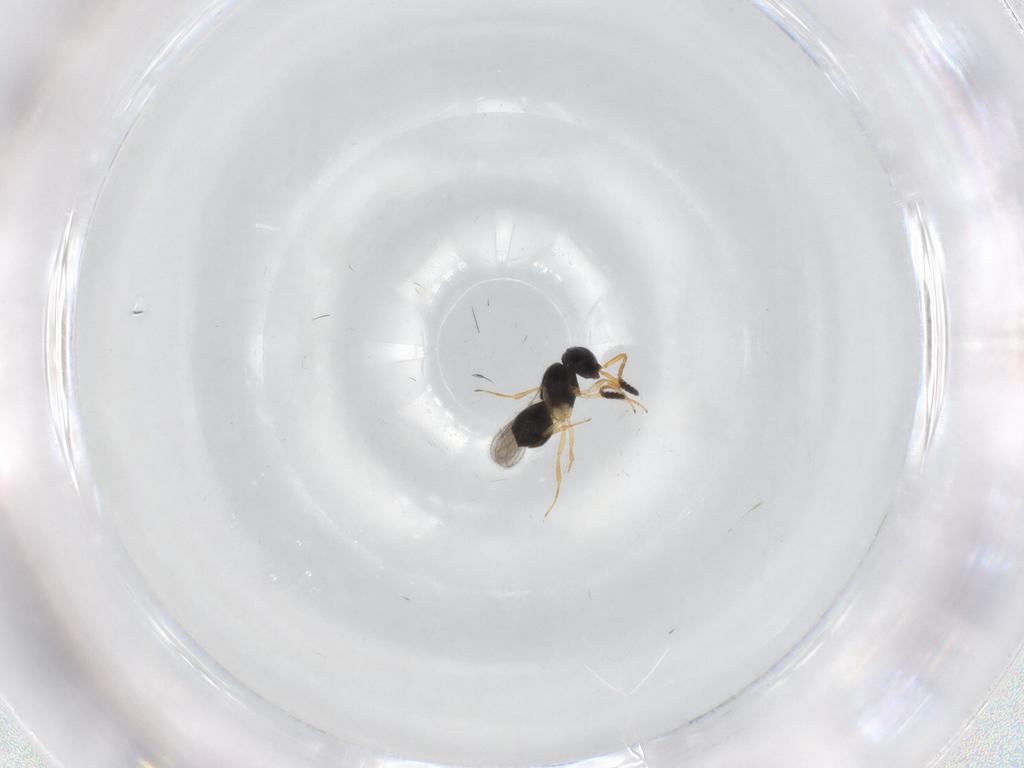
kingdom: Animalia
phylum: Arthropoda
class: Insecta
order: Hymenoptera
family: Scelionidae
